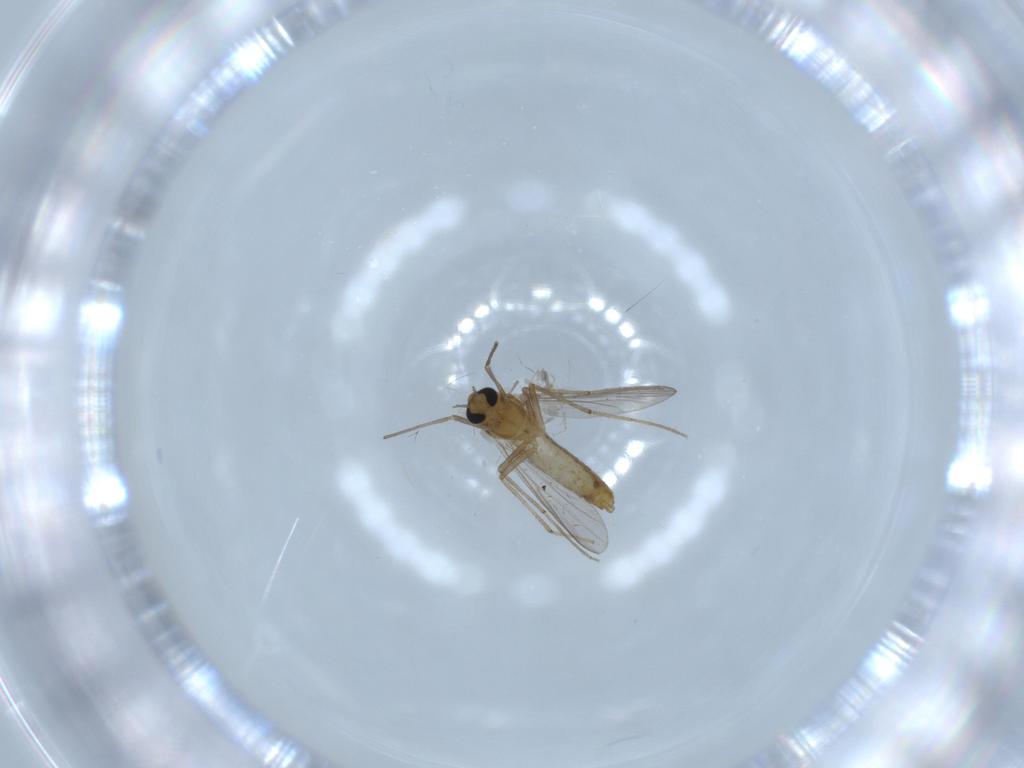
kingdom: Animalia
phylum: Arthropoda
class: Insecta
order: Diptera
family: Chironomidae
